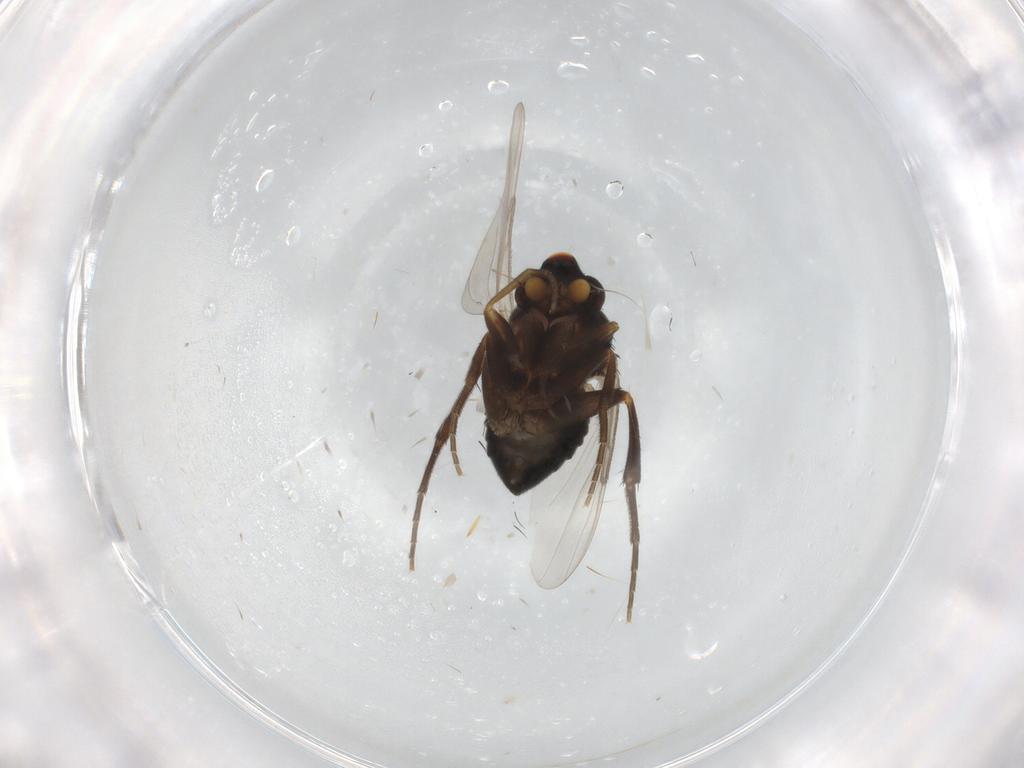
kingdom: Animalia
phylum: Arthropoda
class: Insecta
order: Diptera
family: Phoridae
